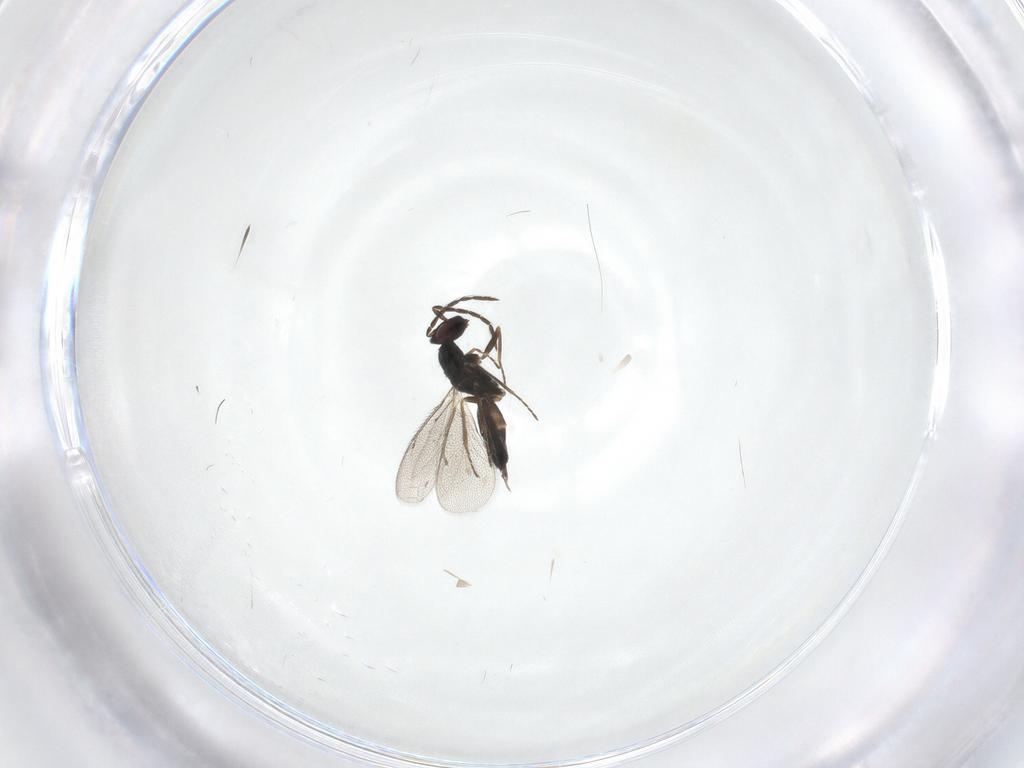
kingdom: Animalia
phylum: Arthropoda
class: Insecta
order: Hymenoptera
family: Eulophidae
